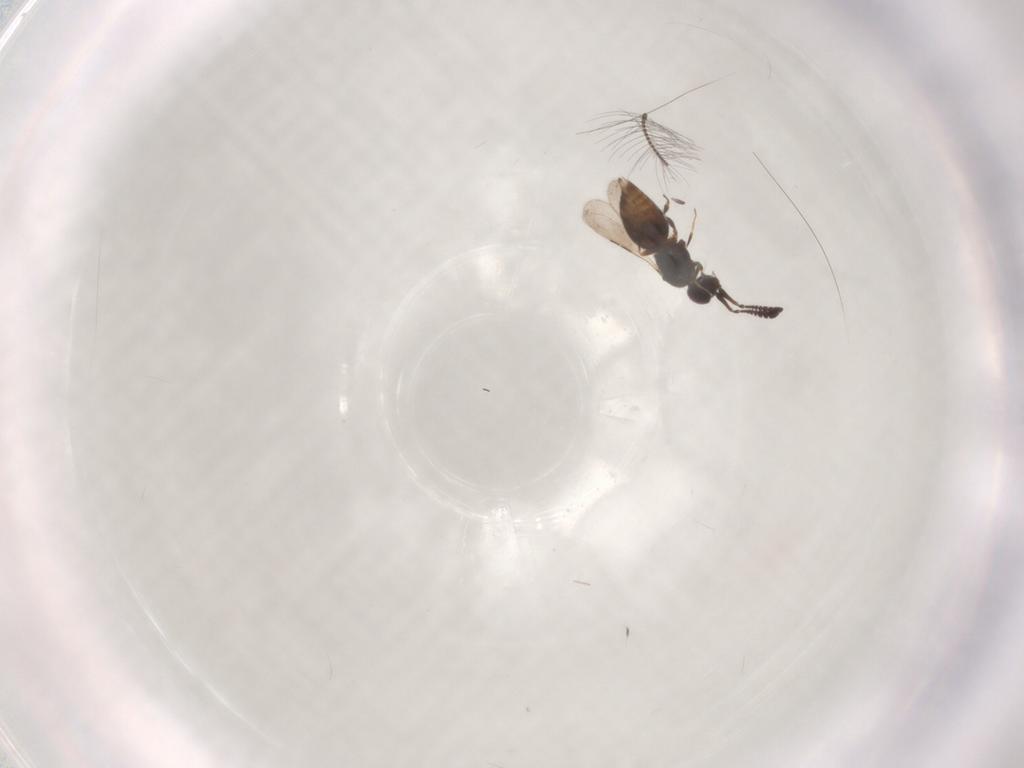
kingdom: Animalia
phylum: Arthropoda
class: Insecta
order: Hymenoptera
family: Ceraphronidae
